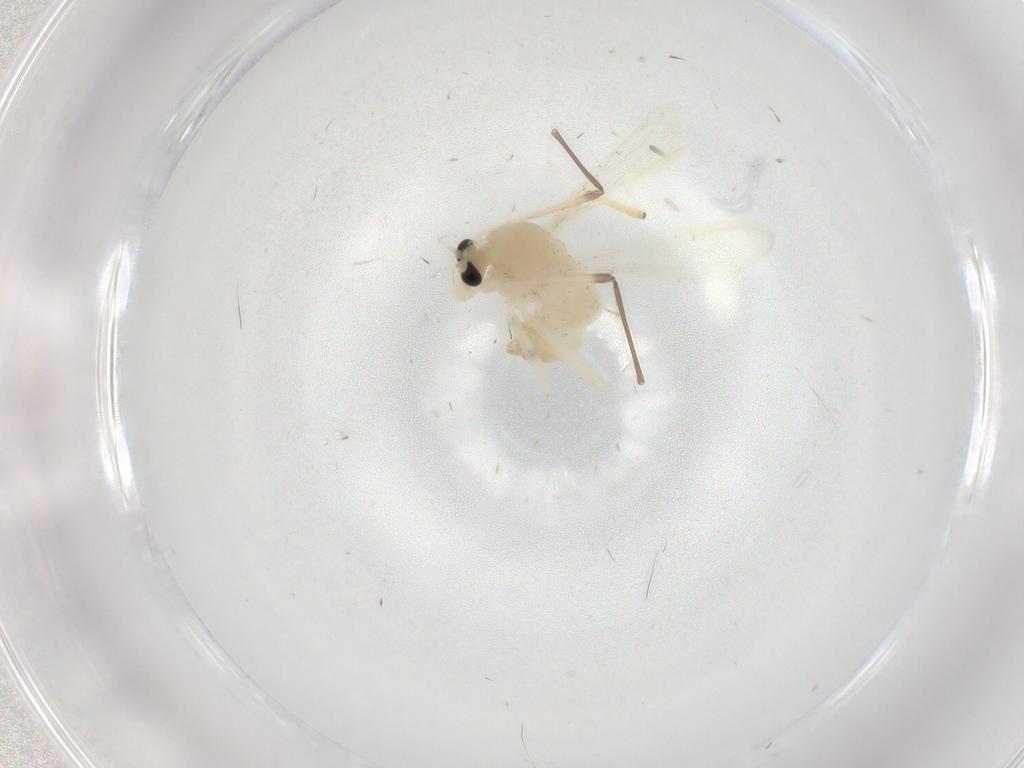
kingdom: Animalia
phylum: Arthropoda
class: Insecta
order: Diptera
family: Chironomidae
